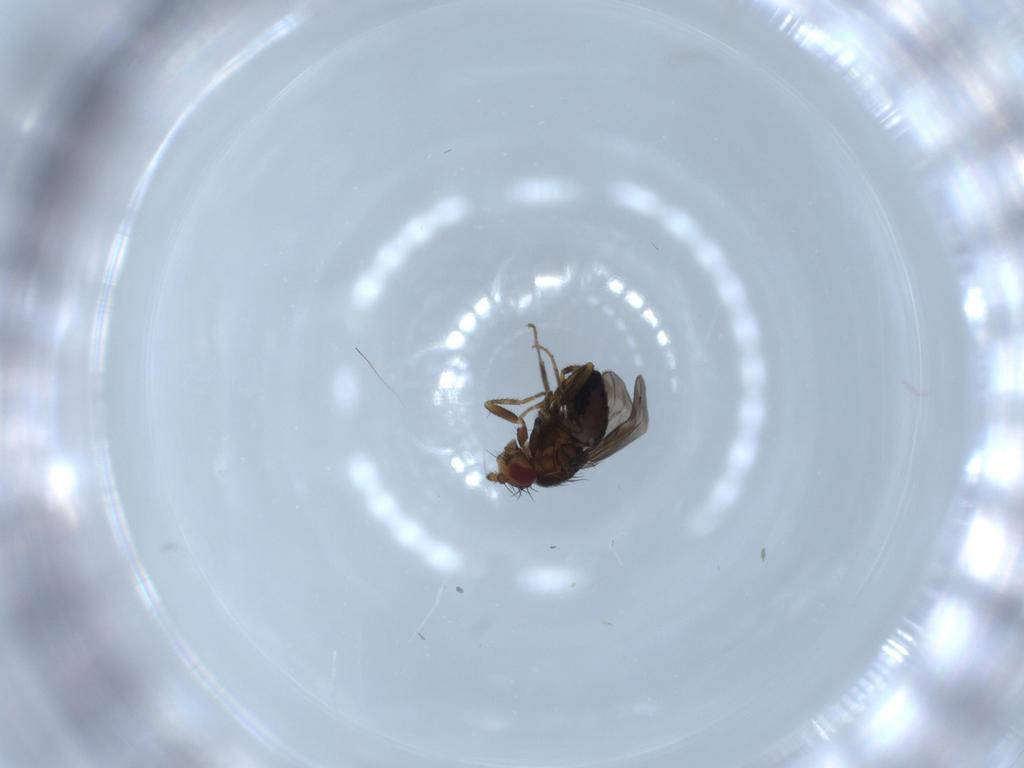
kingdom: Animalia
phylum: Arthropoda
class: Insecta
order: Diptera
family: Sphaeroceridae
